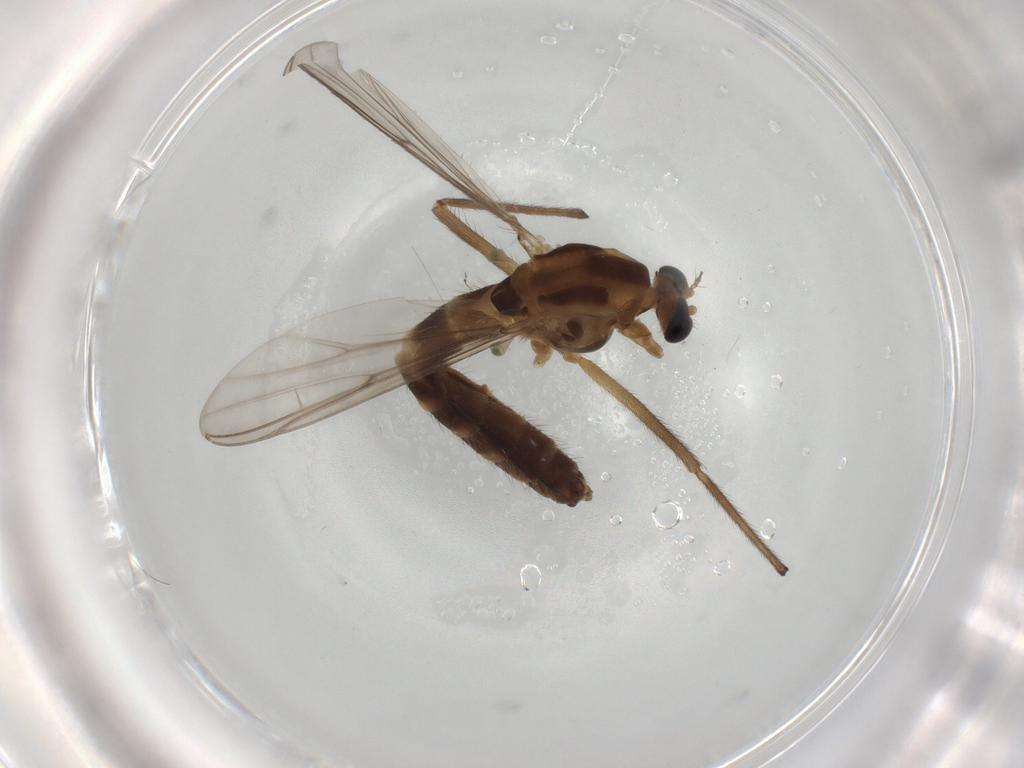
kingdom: Animalia
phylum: Arthropoda
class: Insecta
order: Diptera
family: Chironomidae
